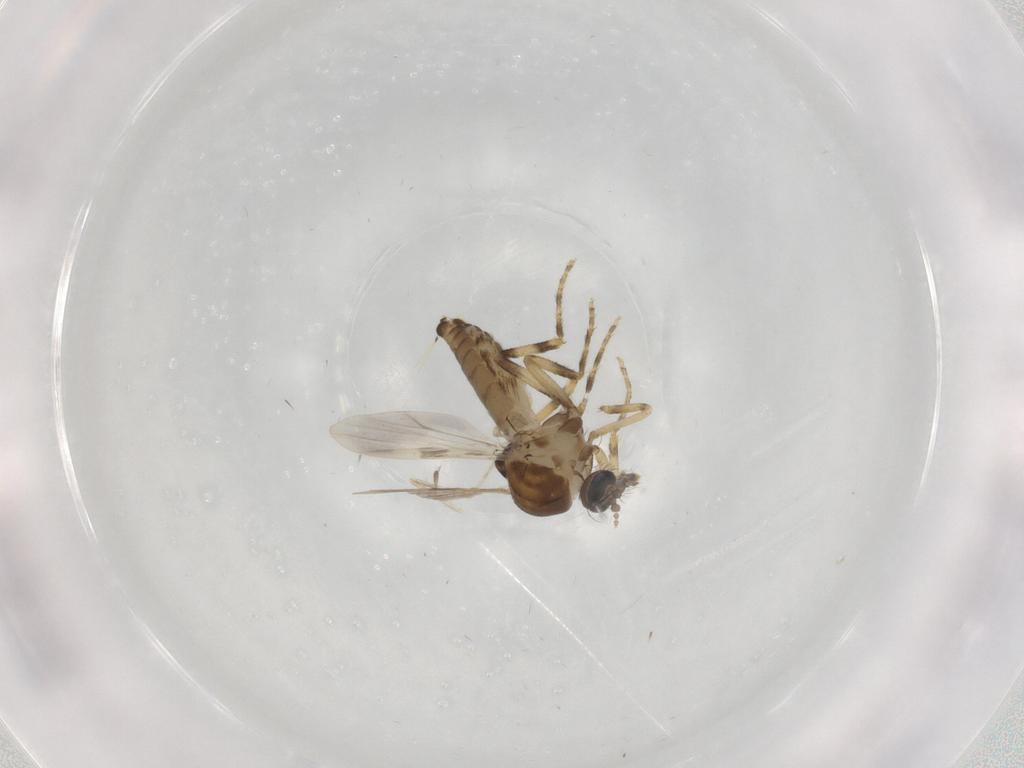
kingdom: Animalia
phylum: Arthropoda
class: Insecta
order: Diptera
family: Ceratopogonidae
